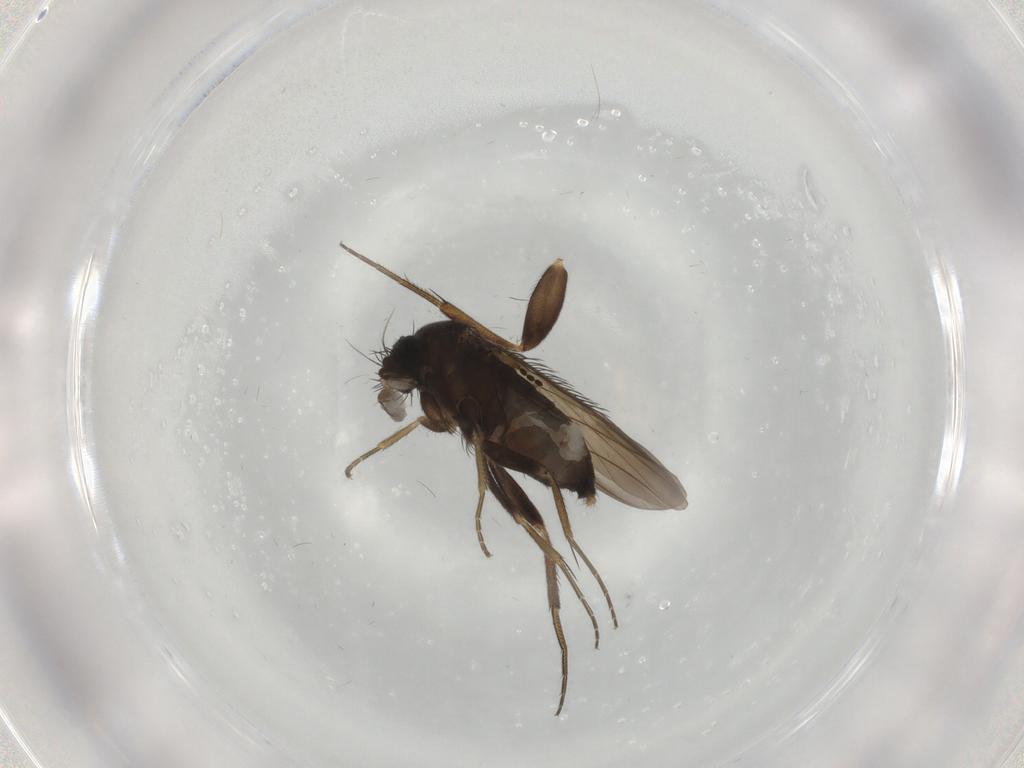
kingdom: Animalia
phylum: Arthropoda
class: Insecta
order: Diptera
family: Phoridae
